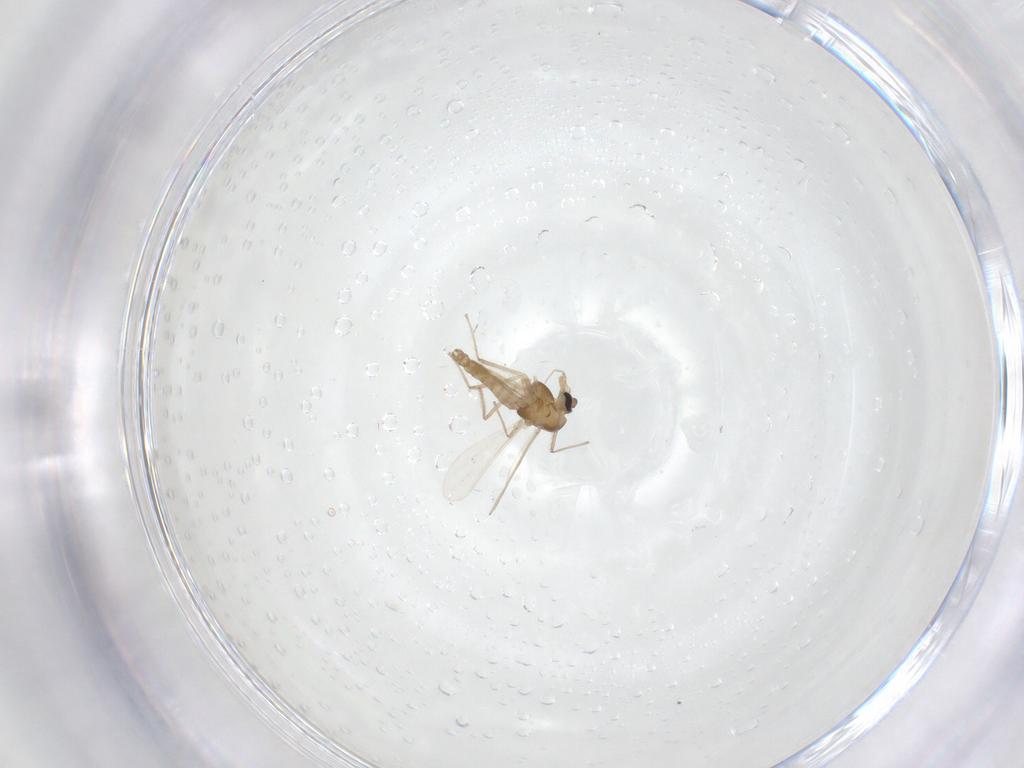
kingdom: Animalia
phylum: Arthropoda
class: Insecta
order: Diptera
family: Chironomidae
